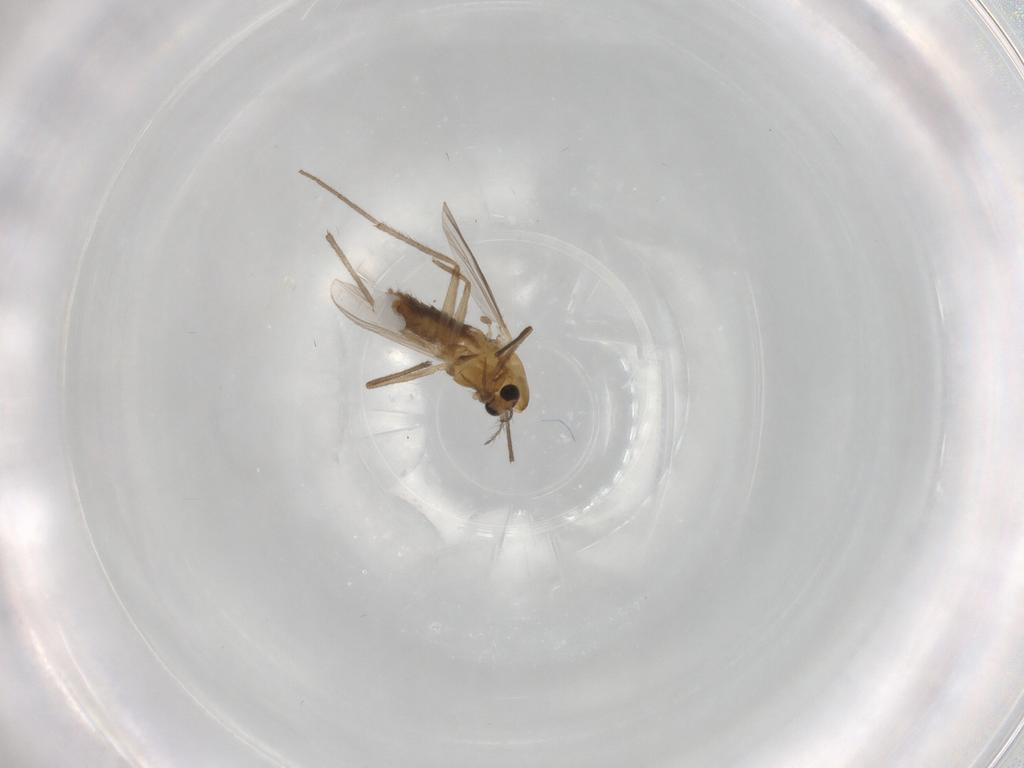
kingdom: Animalia
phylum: Arthropoda
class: Insecta
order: Diptera
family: Chironomidae
